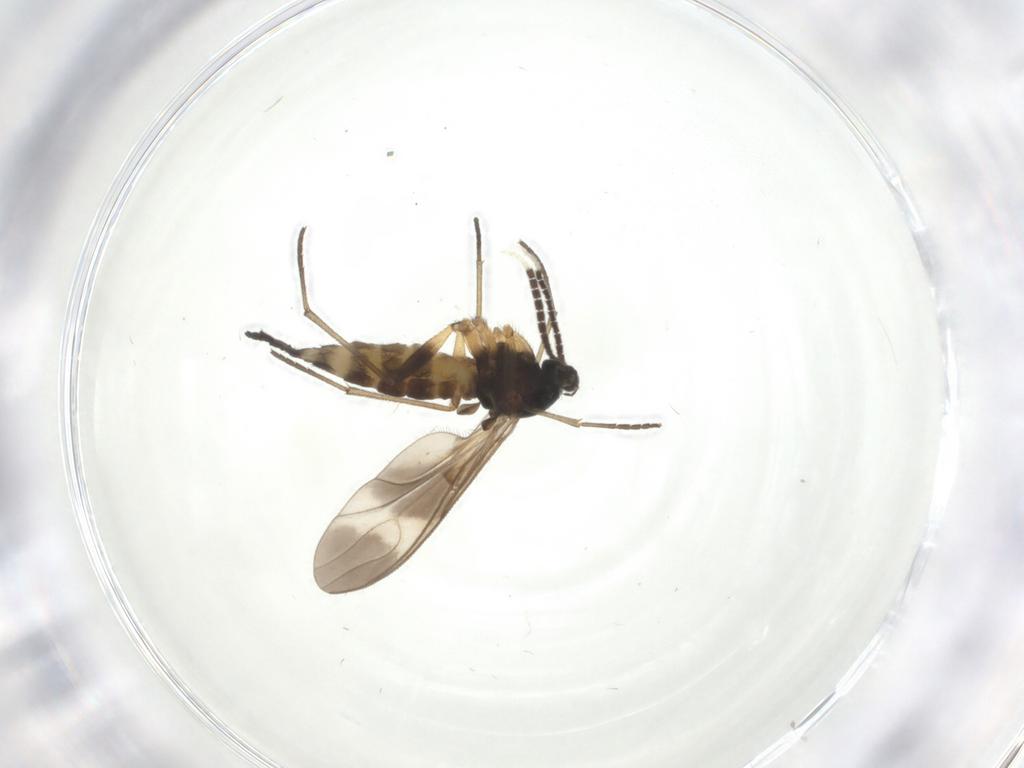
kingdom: Animalia
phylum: Arthropoda
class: Insecta
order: Diptera
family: Sciaridae
